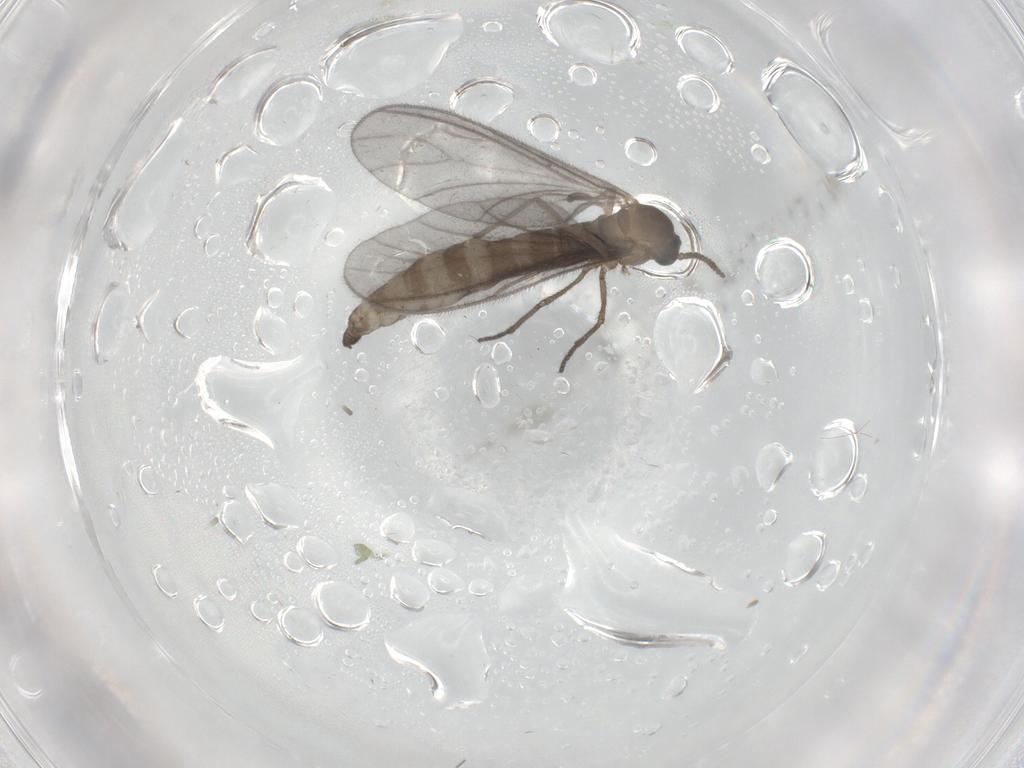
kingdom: Animalia
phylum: Arthropoda
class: Insecta
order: Diptera
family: Sciaridae
